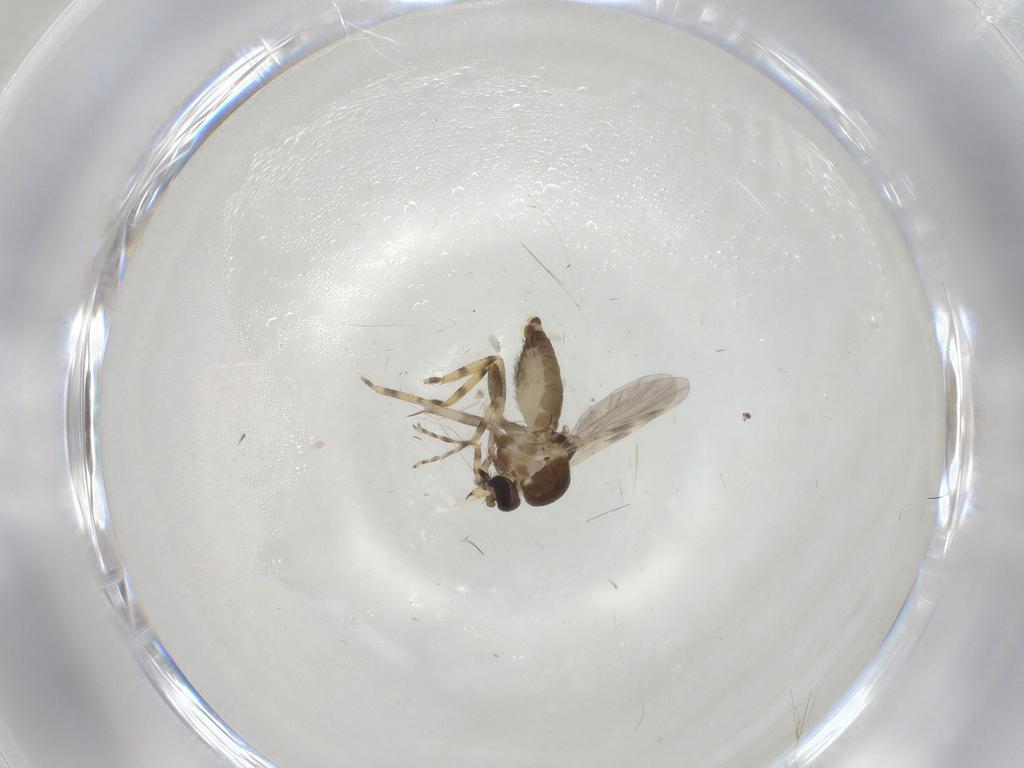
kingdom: Animalia
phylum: Arthropoda
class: Insecta
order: Diptera
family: Ceratopogonidae
